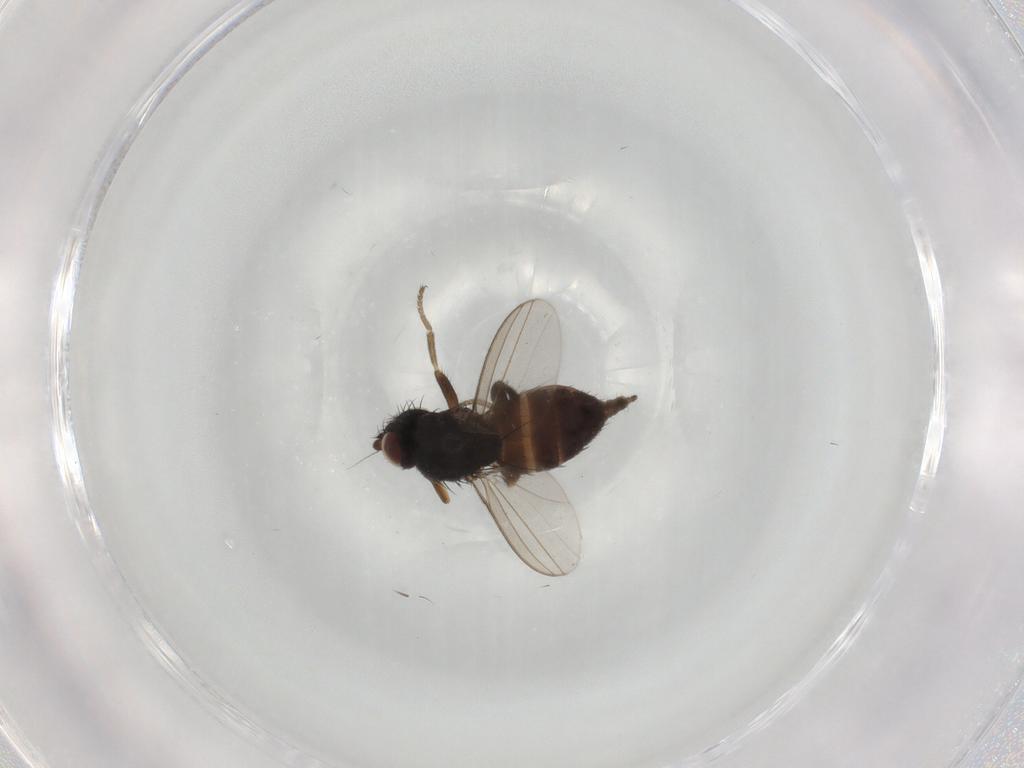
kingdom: Animalia
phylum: Arthropoda
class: Insecta
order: Diptera
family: Milichiidae
